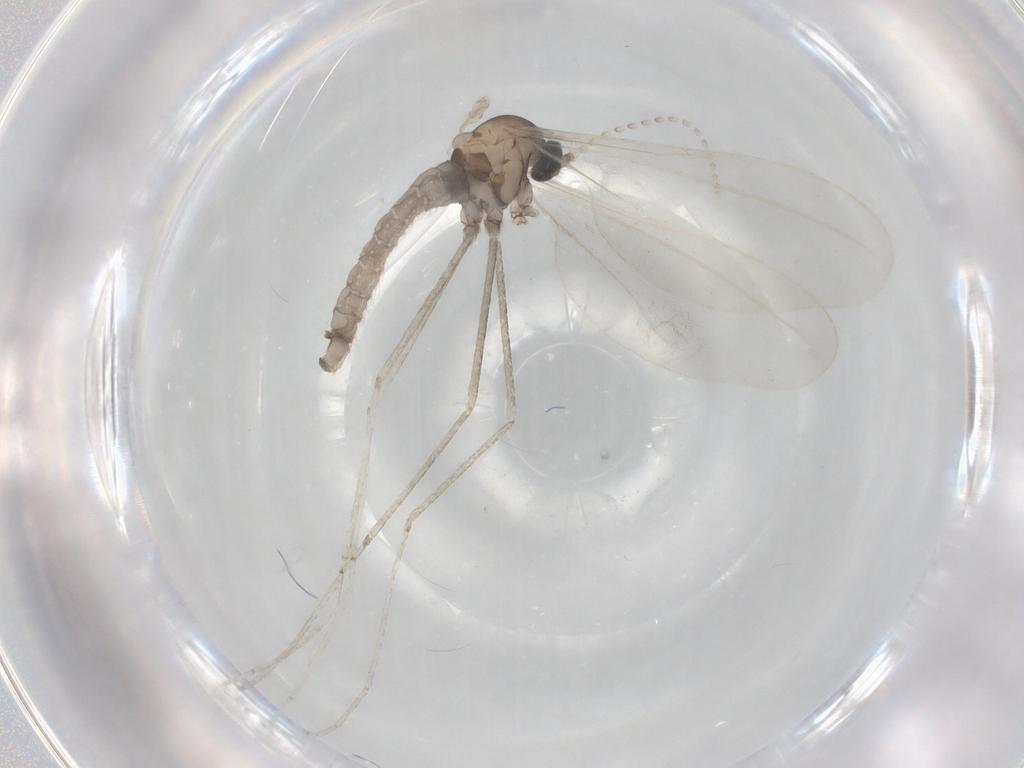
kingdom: Animalia
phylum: Arthropoda
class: Insecta
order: Diptera
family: Cecidomyiidae
